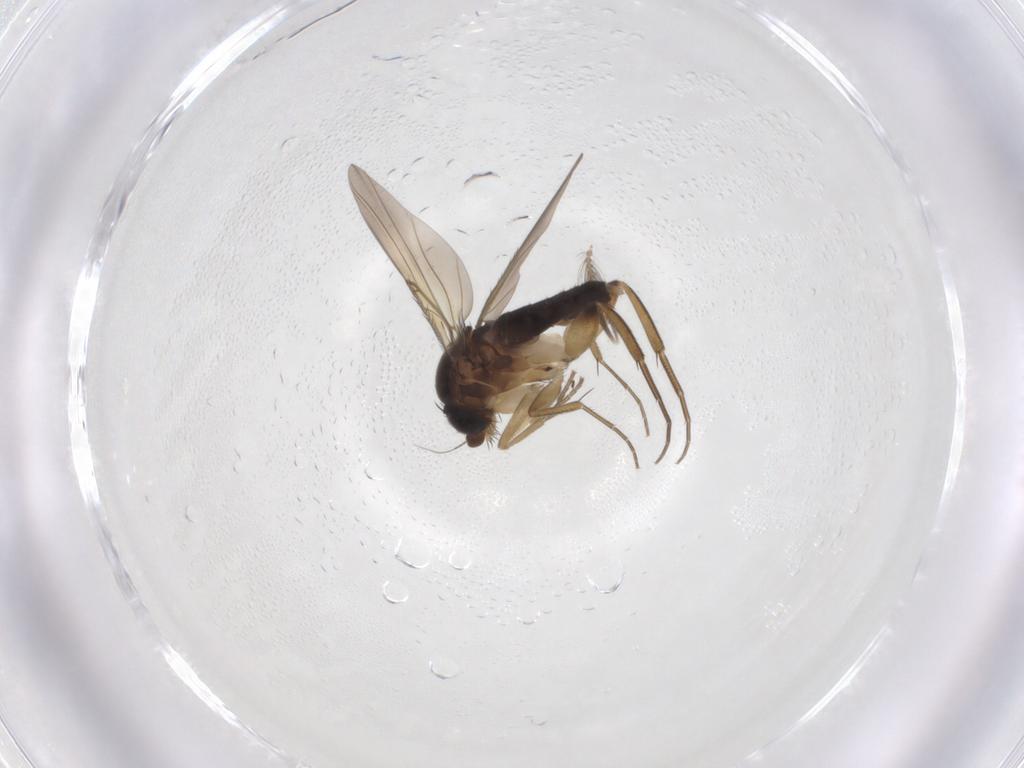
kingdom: Animalia
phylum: Arthropoda
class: Insecta
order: Diptera
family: Phoridae
